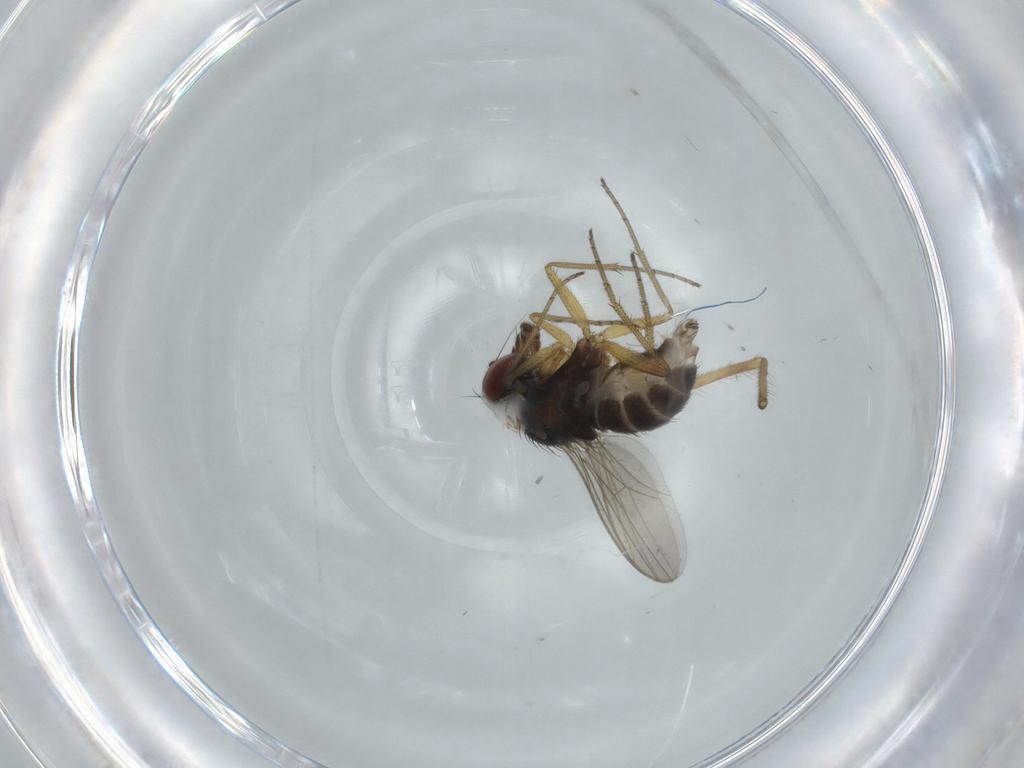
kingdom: Animalia
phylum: Arthropoda
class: Insecta
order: Diptera
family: Dolichopodidae
